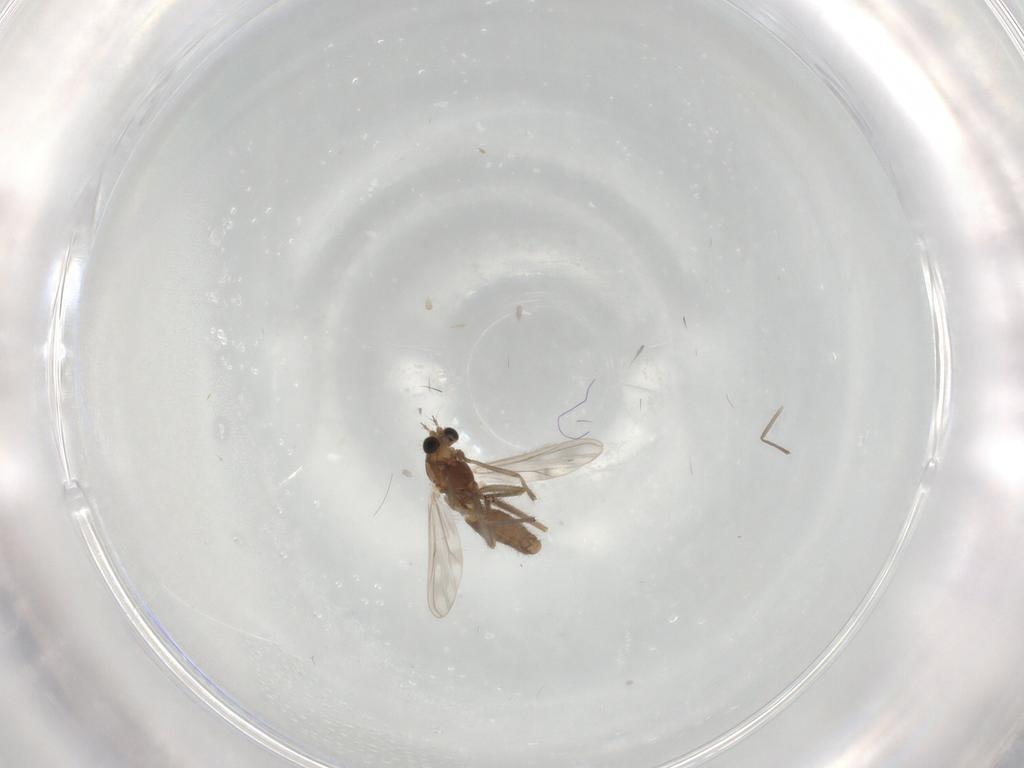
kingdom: Animalia
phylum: Arthropoda
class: Insecta
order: Diptera
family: Chironomidae
